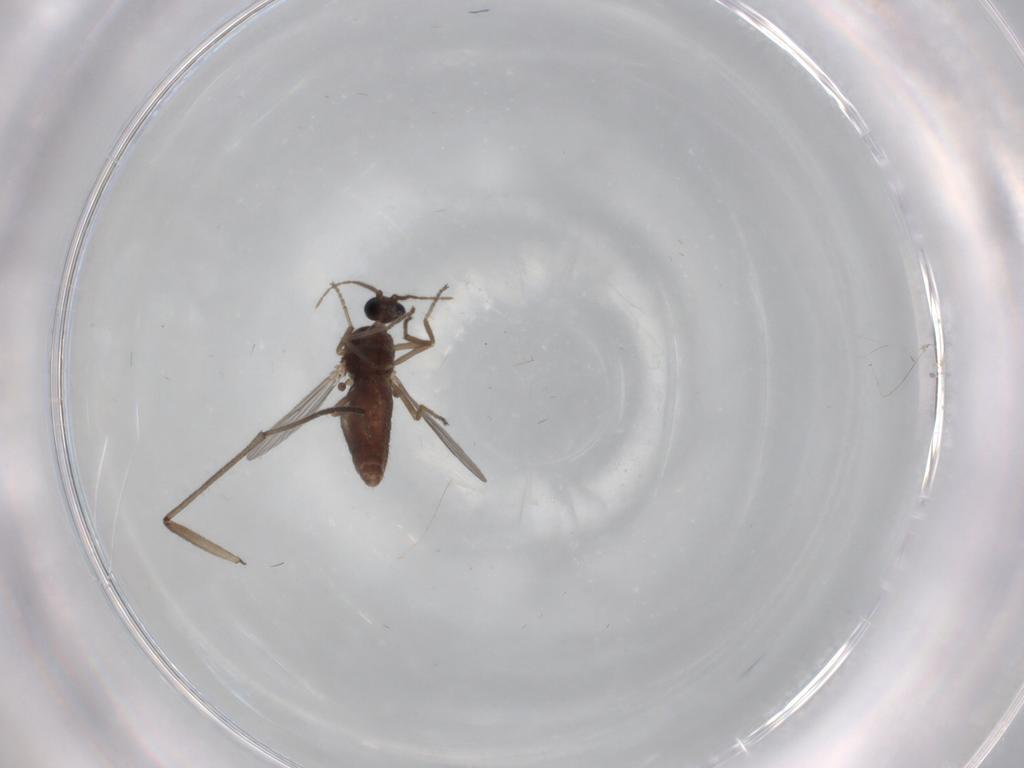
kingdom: Animalia
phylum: Arthropoda
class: Insecta
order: Diptera
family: Ceratopogonidae
